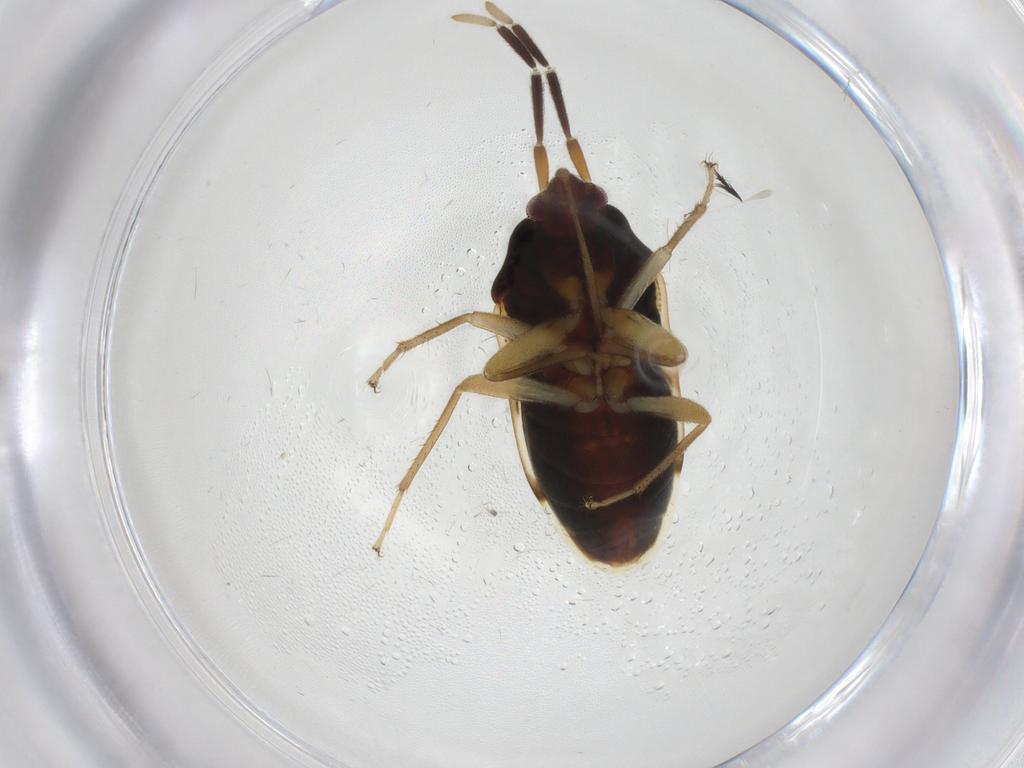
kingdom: Animalia
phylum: Arthropoda
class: Insecta
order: Hemiptera
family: Rhyparochromidae
